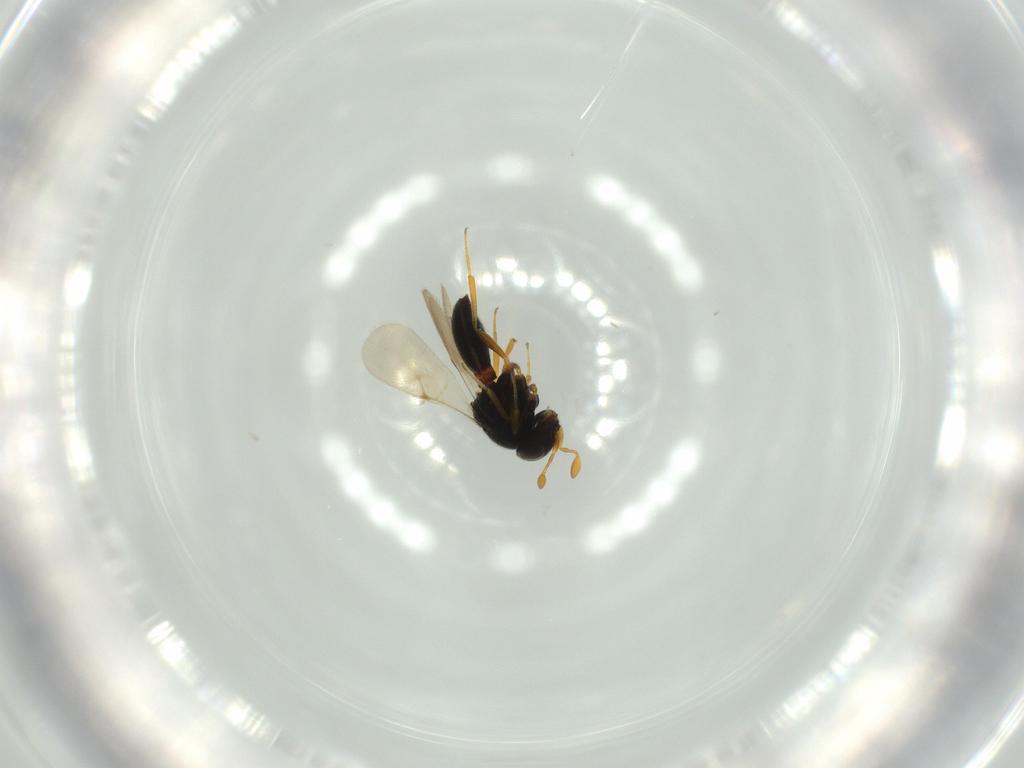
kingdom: Animalia
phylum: Arthropoda
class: Insecta
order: Hymenoptera
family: Scelionidae
